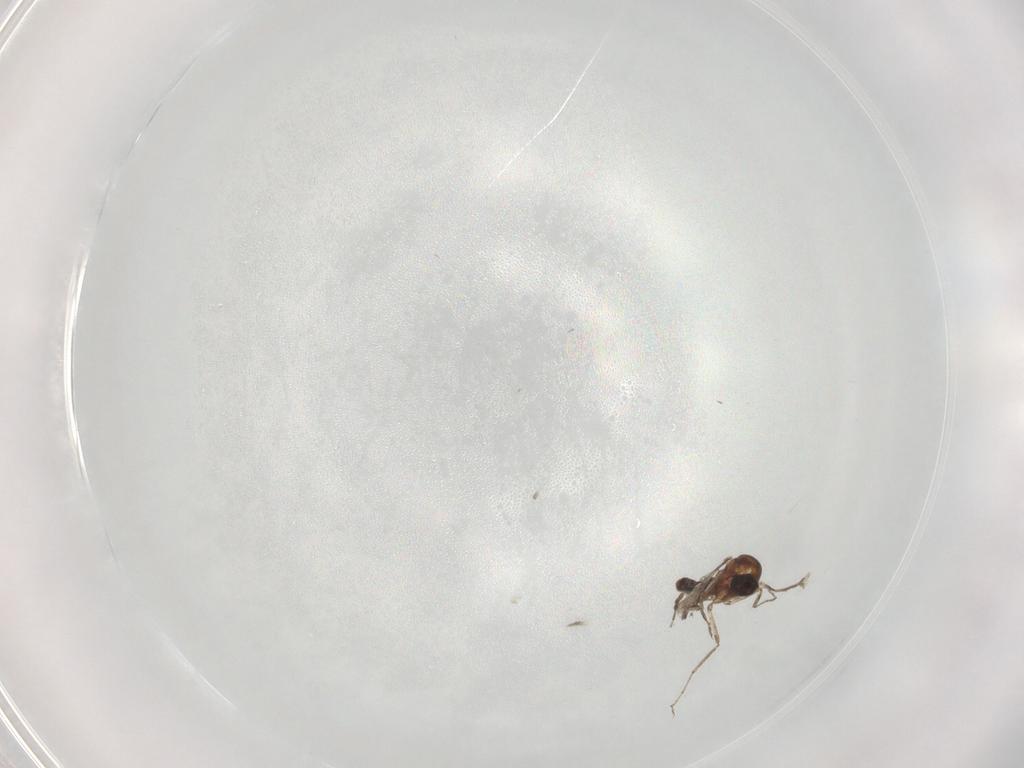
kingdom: Animalia
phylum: Arthropoda
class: Insecta
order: Diptera
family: Ceratopogonidae
